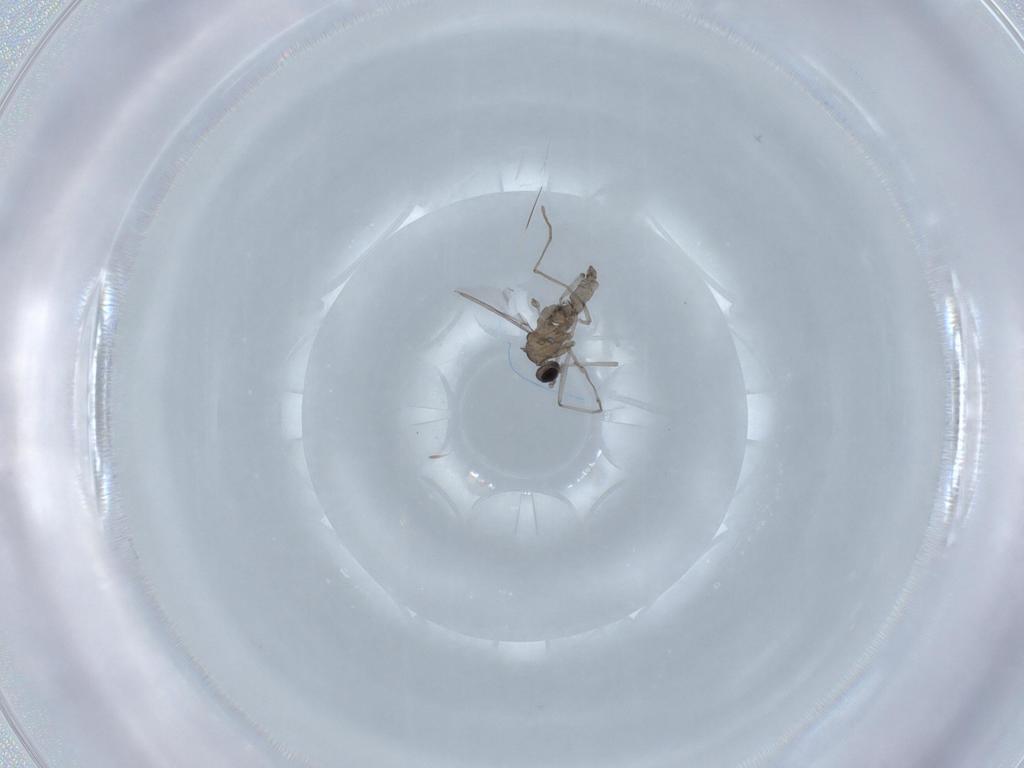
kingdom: Animalia
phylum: Arthropoda
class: Insecta
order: Diptera
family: Cecidomyiidae
